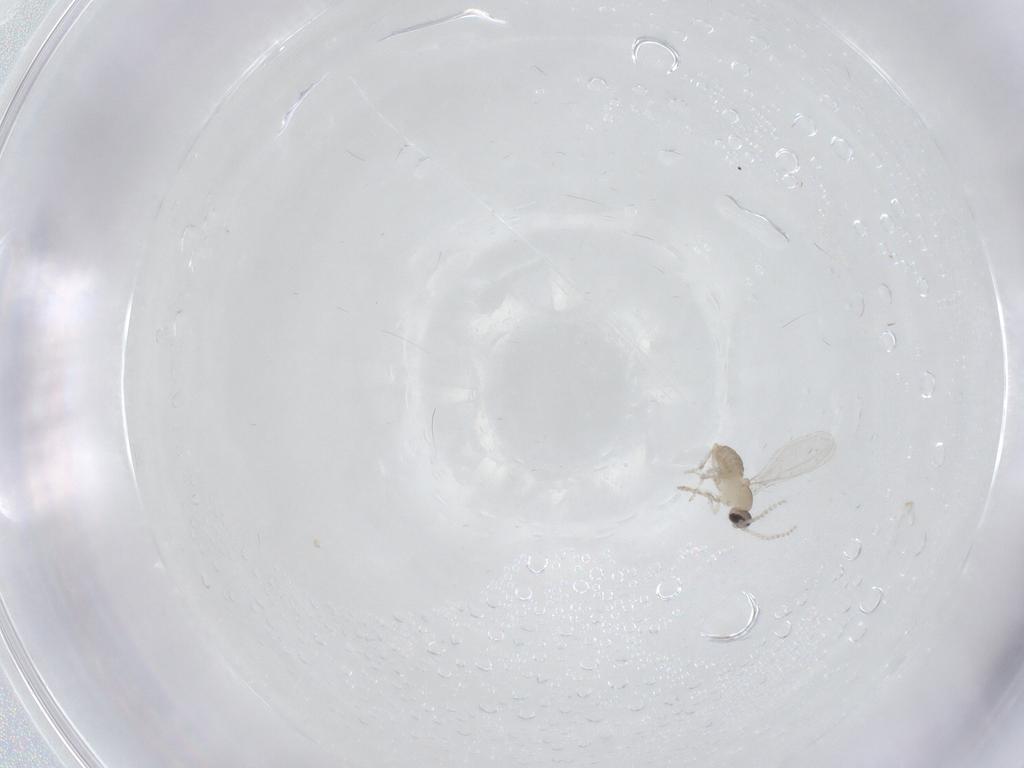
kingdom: Animalia
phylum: Arthropoda
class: Insecta
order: Diptera
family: Cecidomyiidae
